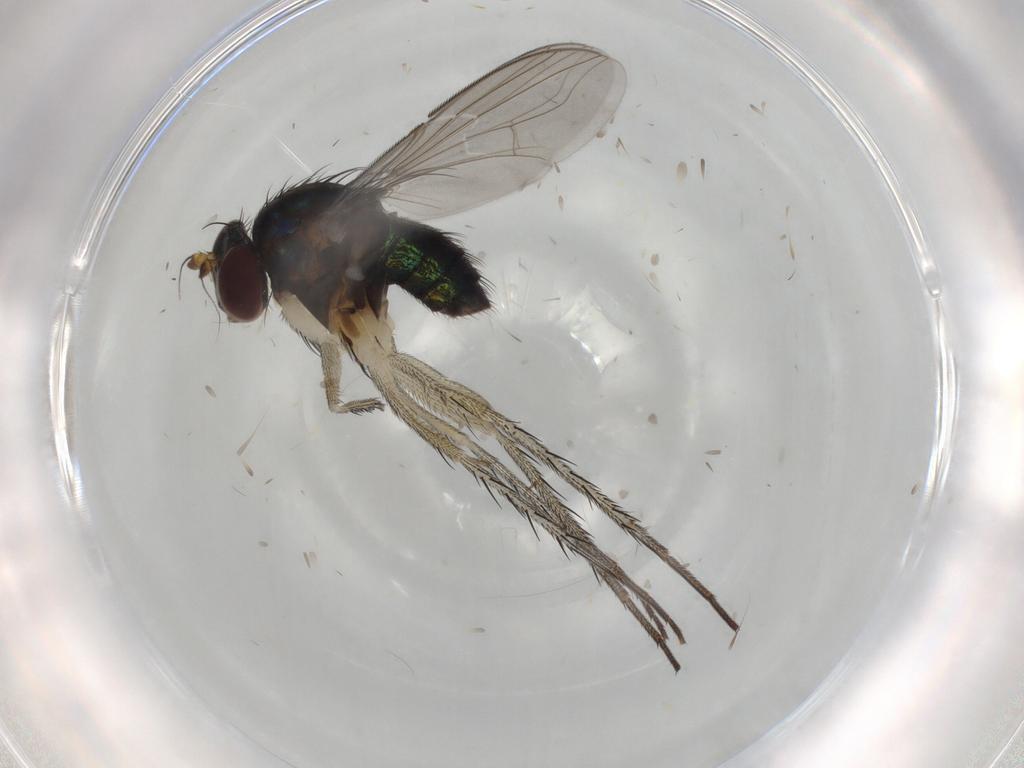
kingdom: Animalia
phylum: Arthropoda
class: Insecta
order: Diptera
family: Dolichopodidae
